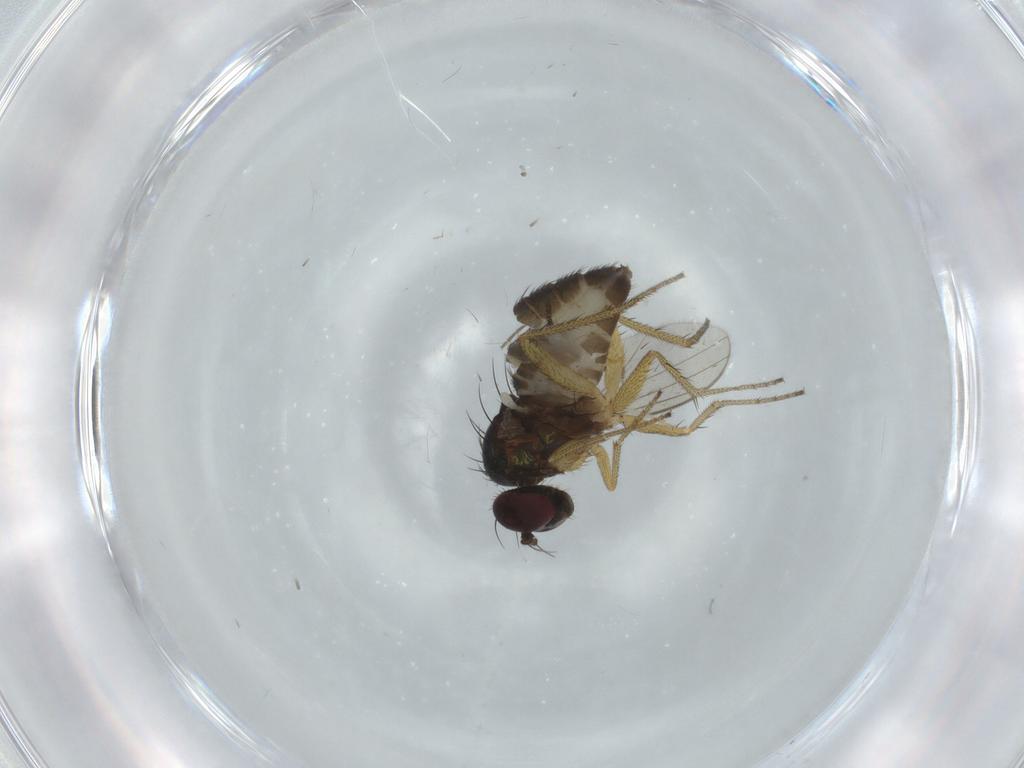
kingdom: Animalia
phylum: Arthropoda
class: Insecta
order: Diptera
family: Dolichopodidae
